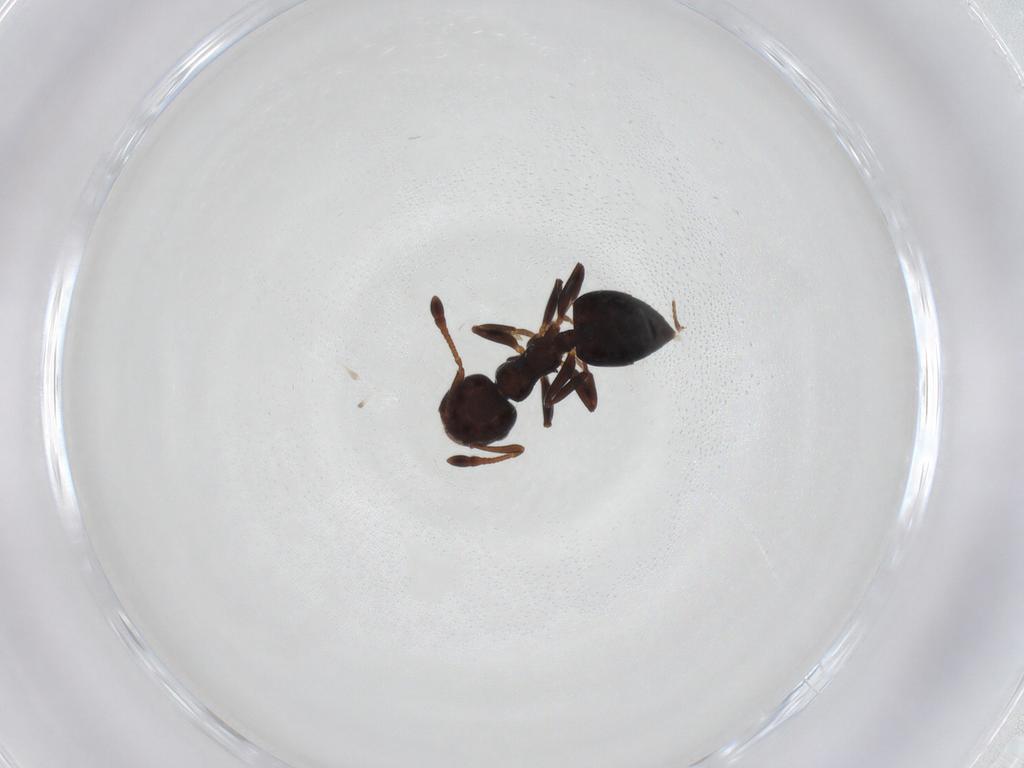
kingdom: Animalia
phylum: Arthropoda
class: Insecta
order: Hymenoptera
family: Formicidae
